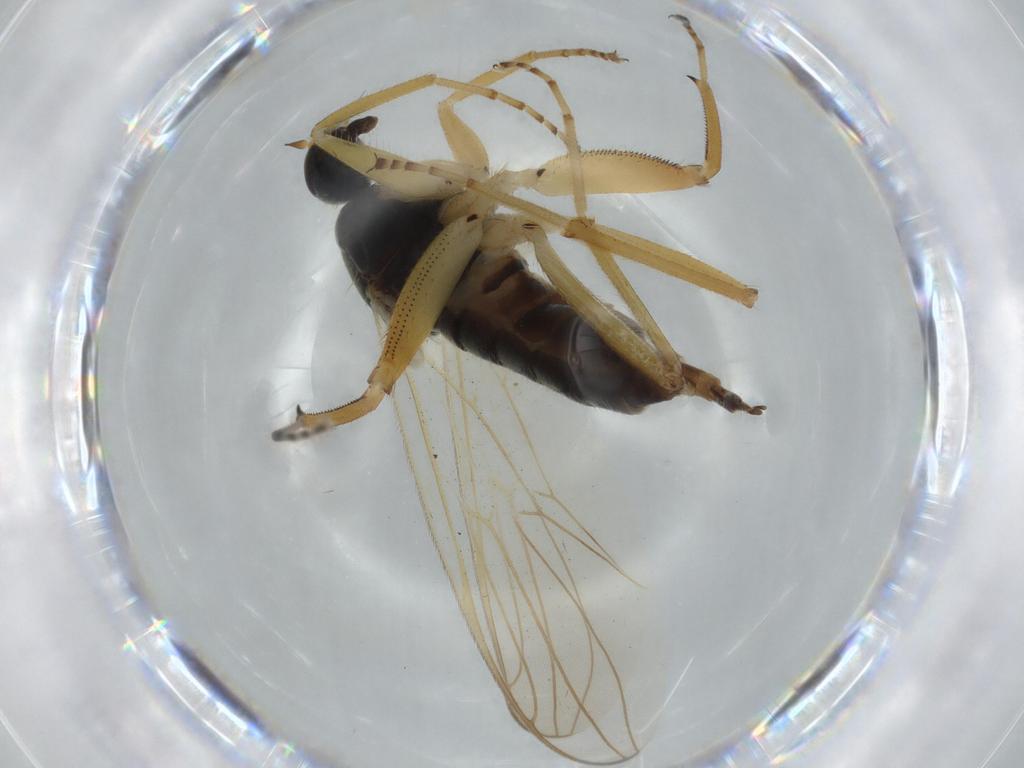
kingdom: Animalia
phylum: Arthropoda
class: Insecta
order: Diptera
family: Hybotidae
